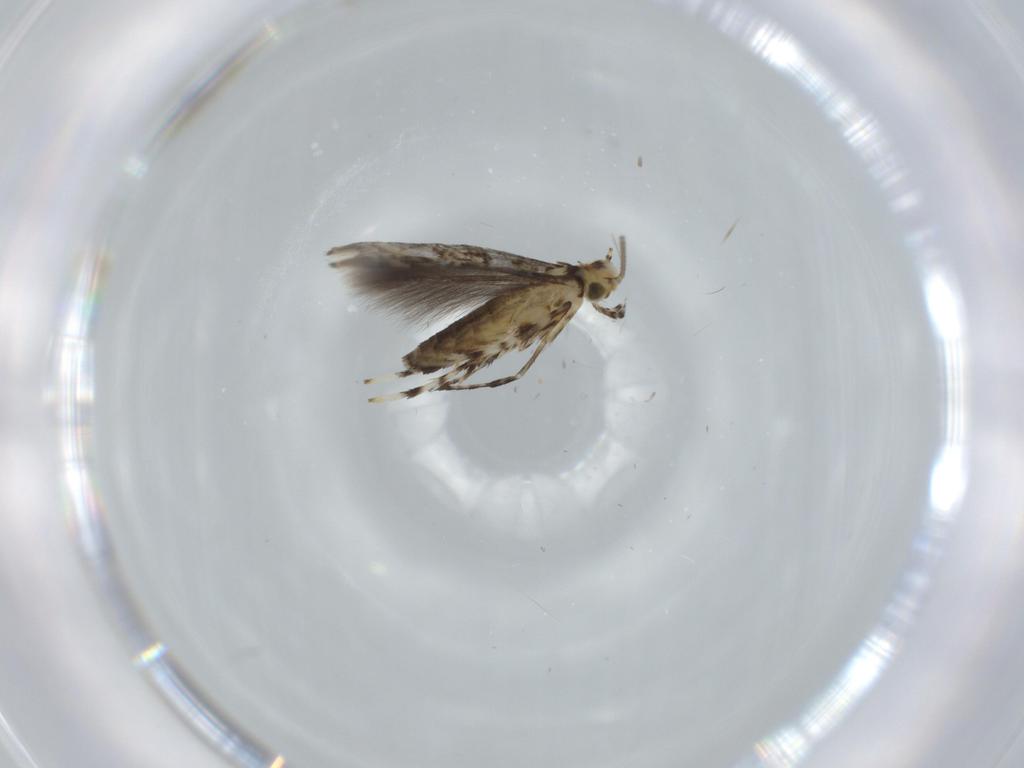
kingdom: Animalia
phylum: Arthropoda
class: Insecta
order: Lepidoptera
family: Gracillariidae
